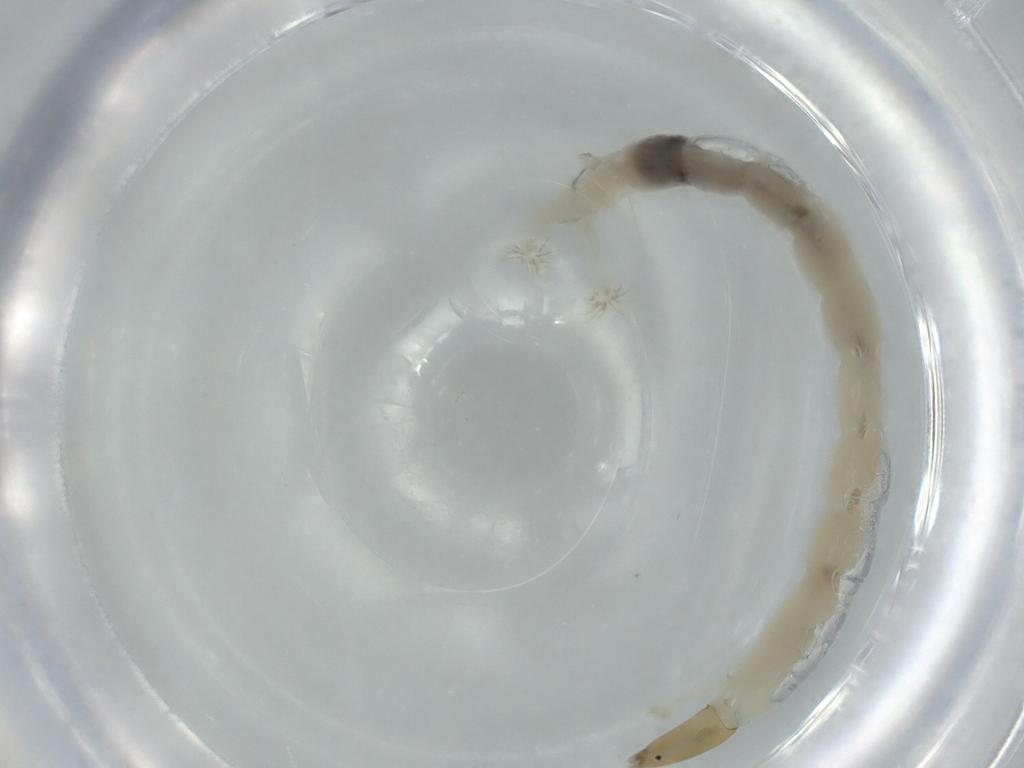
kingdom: Animalia
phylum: Arthropoda
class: Insecta
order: Diptera
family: Chironomidae
